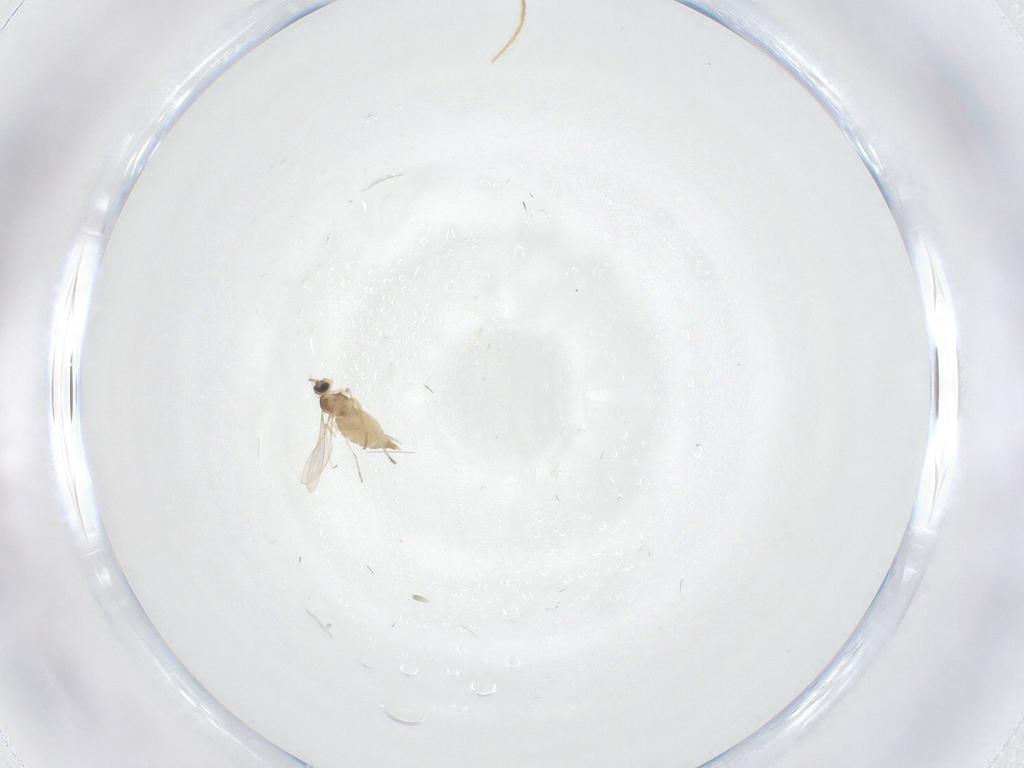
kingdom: Animalia
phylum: Arthropoda
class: Insecta
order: Diptera
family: Chironomidae
